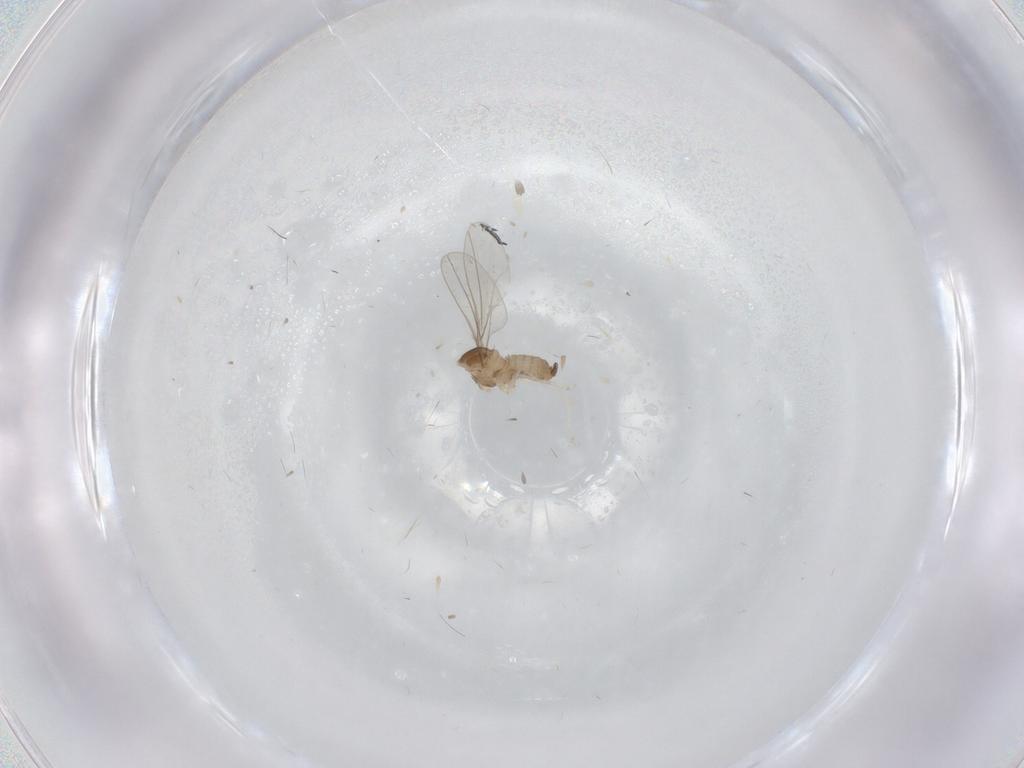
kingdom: Animalia
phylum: Arthropoda
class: Insecta
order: Diptera
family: Cecidomyiidae
